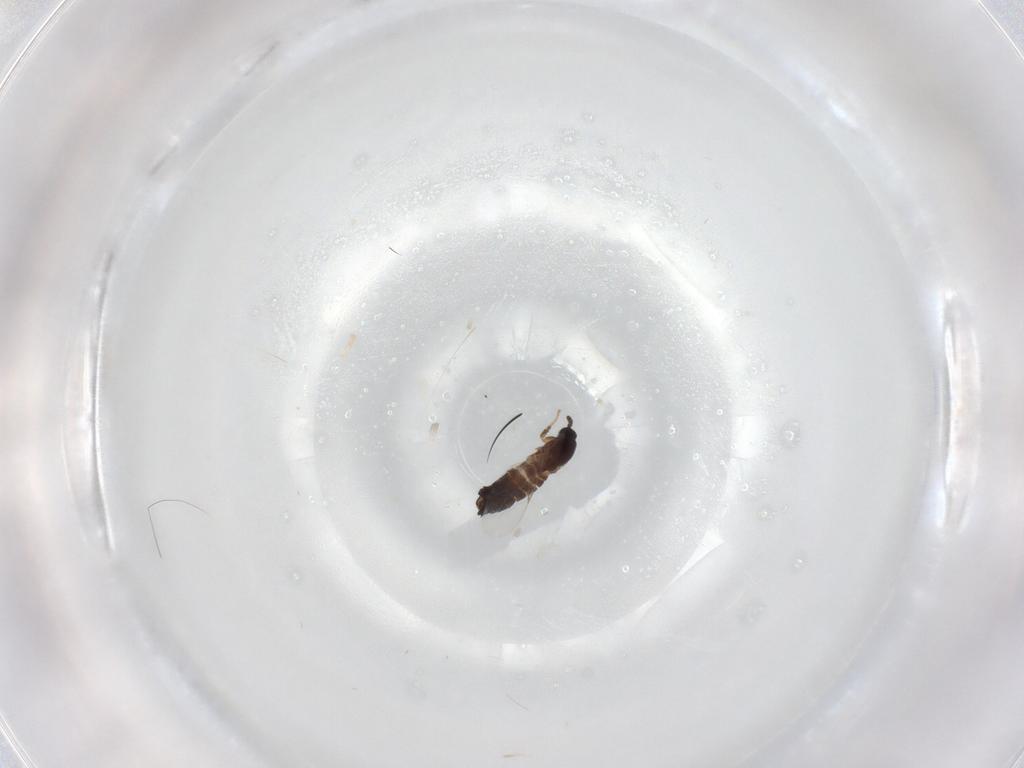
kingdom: Animalia
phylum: Arthropoda
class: Insecta
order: Diptera
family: Scatopsidae
